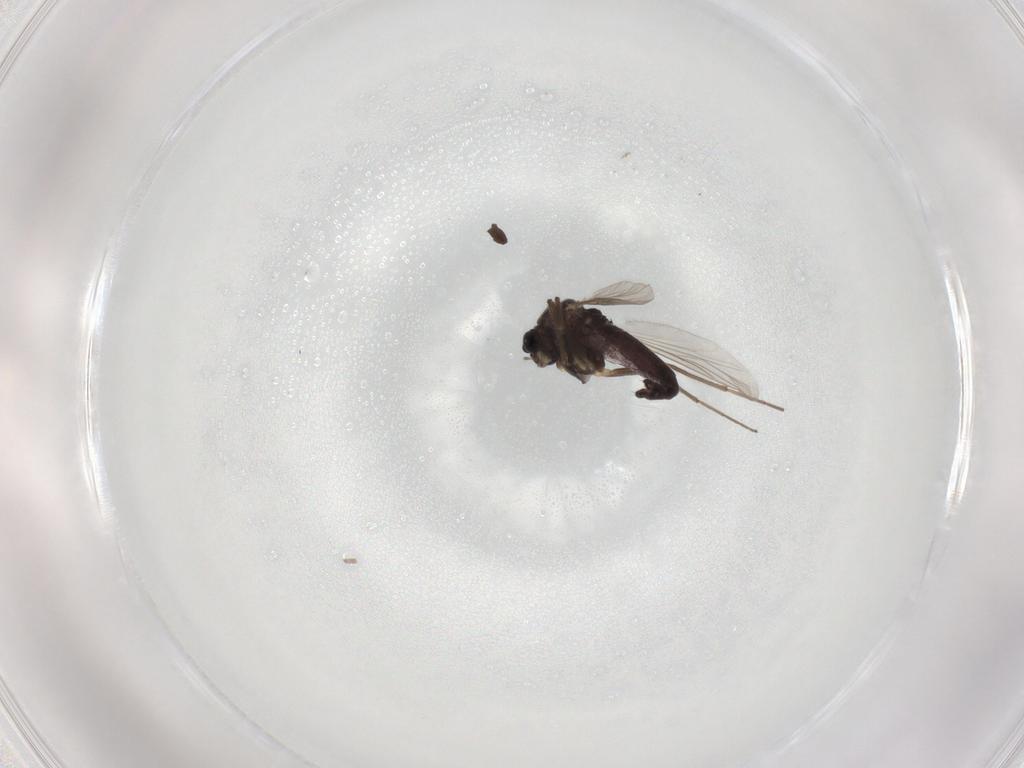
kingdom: Animalia
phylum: Arthropoda
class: Insecta
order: Diptera
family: Chironomidae
